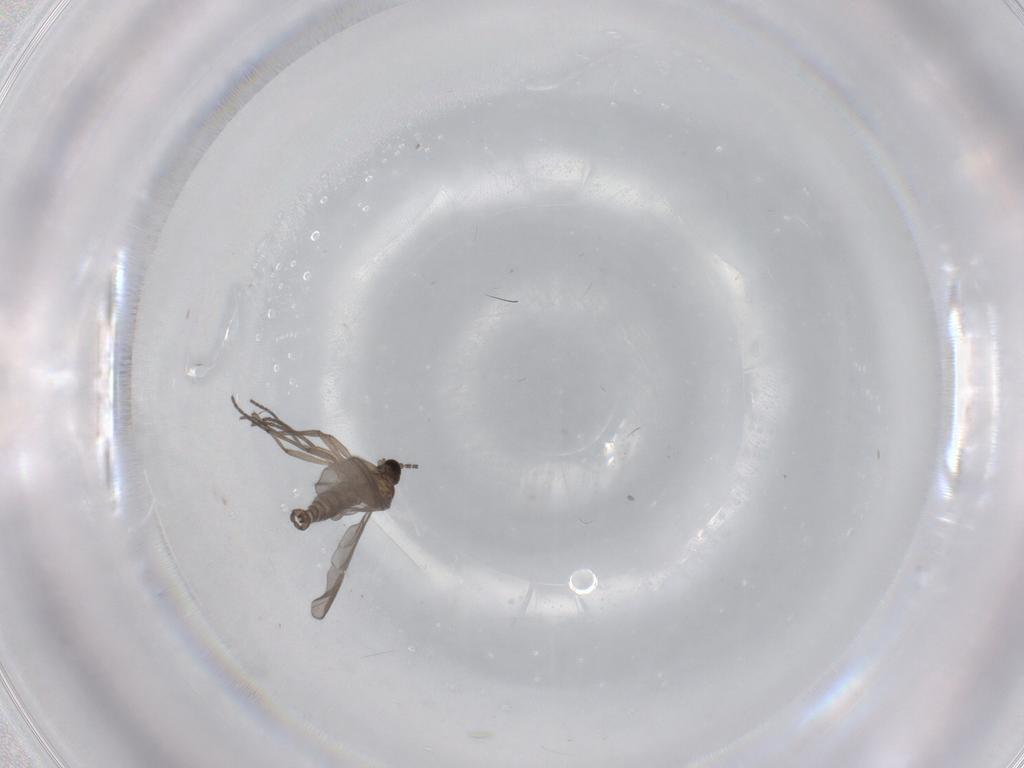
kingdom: Animalia
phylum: Arthropoda
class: Insecta
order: Diptera
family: Sciaridae
